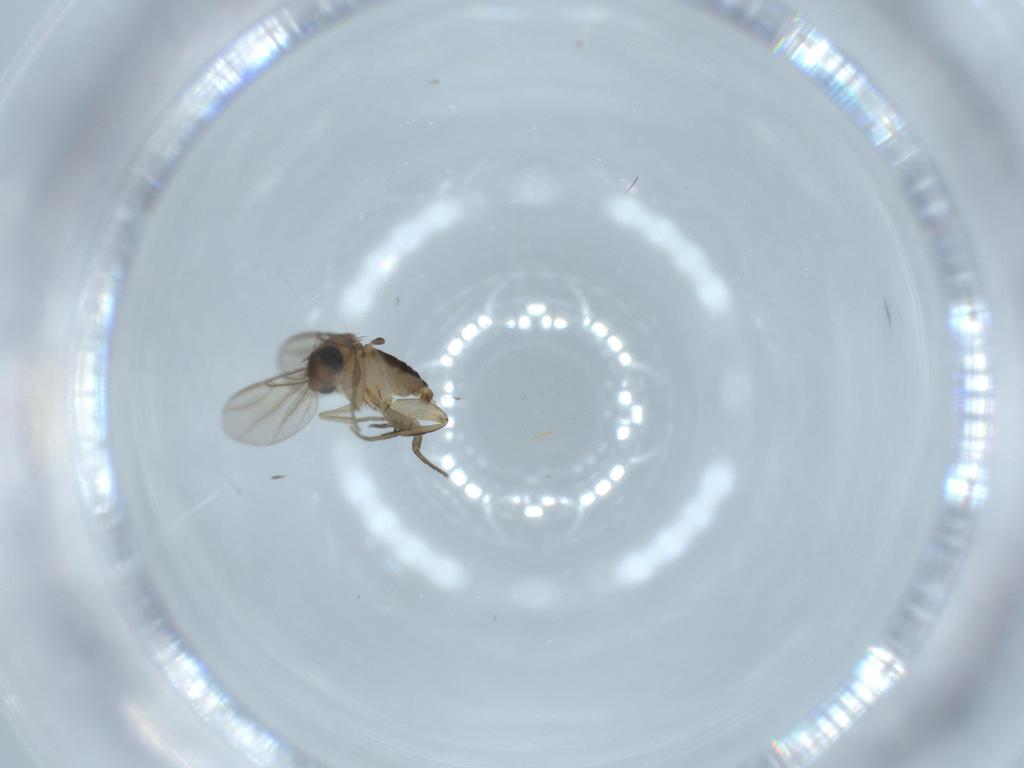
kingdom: Animalia
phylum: Arthropoda
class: Insecta
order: Diptera
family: Phoridae
